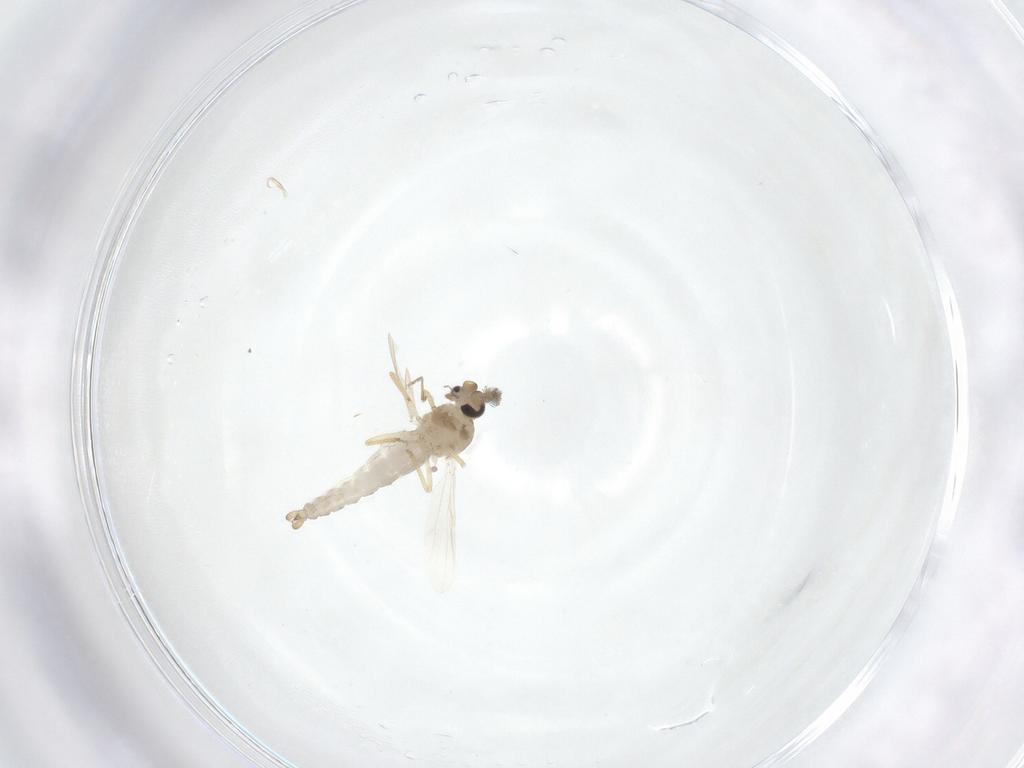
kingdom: Animalia
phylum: Arthropoda
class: Insecta
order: Diptera
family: Ceratopogonidae
